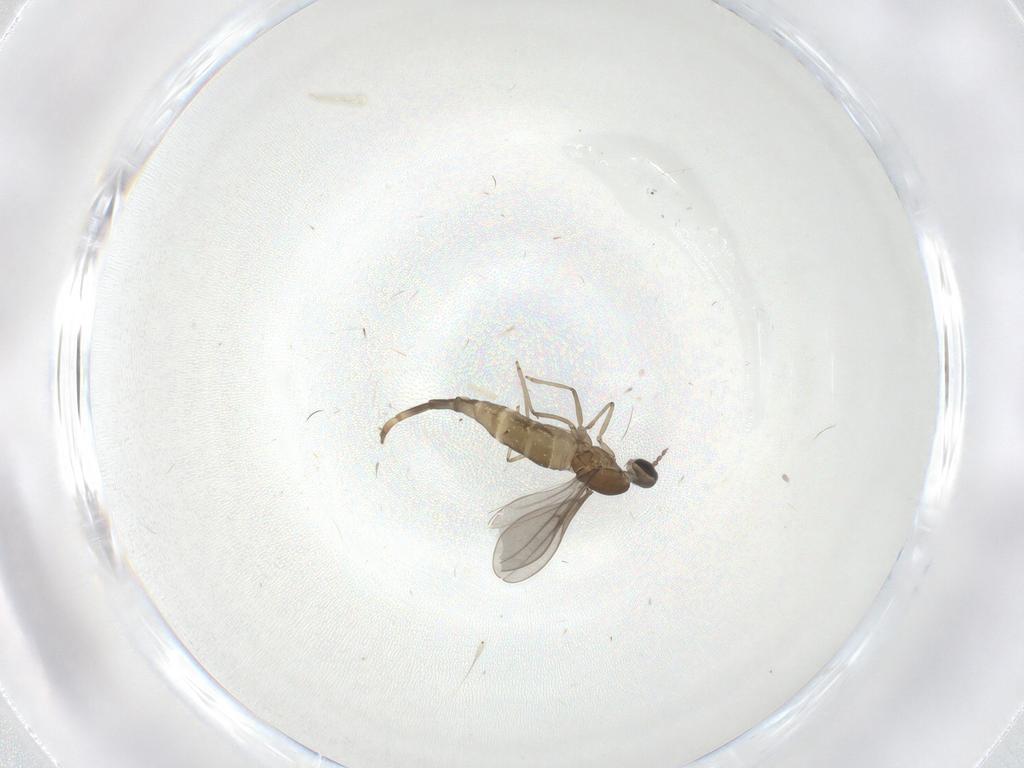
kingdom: Animalia
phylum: Arthropoda
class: Insecta
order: Diptera
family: Cecidomyiidae
